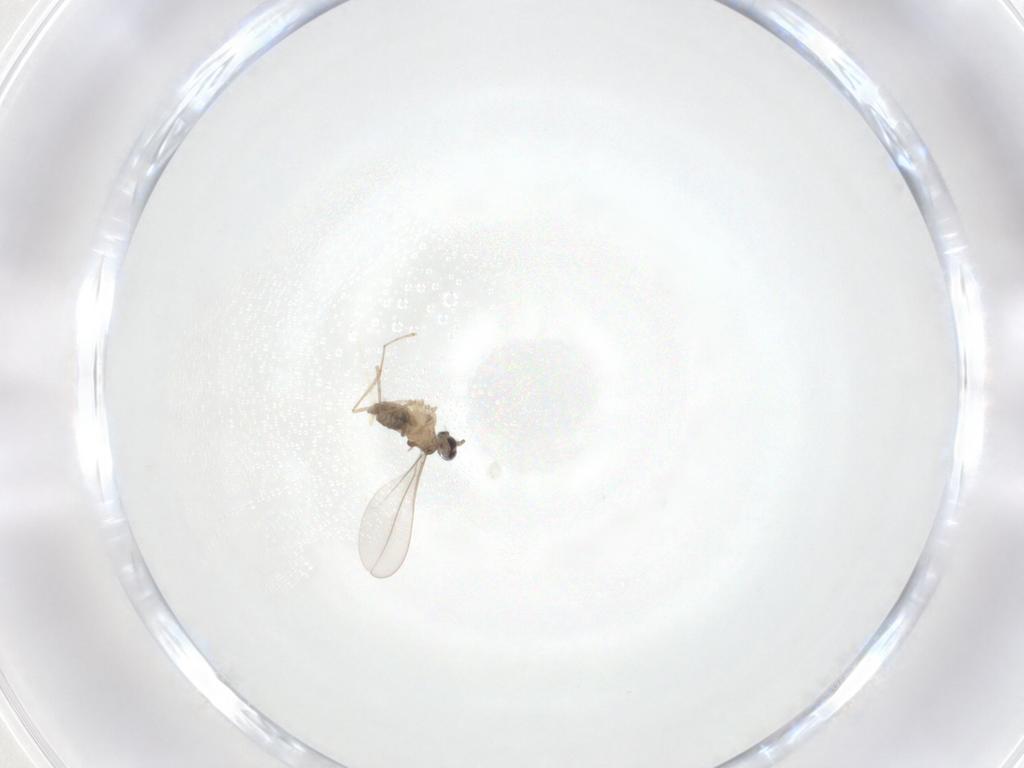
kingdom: Animalia
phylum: Arthropoda
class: Insecta
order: Diptera
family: Cecidomyiidae
